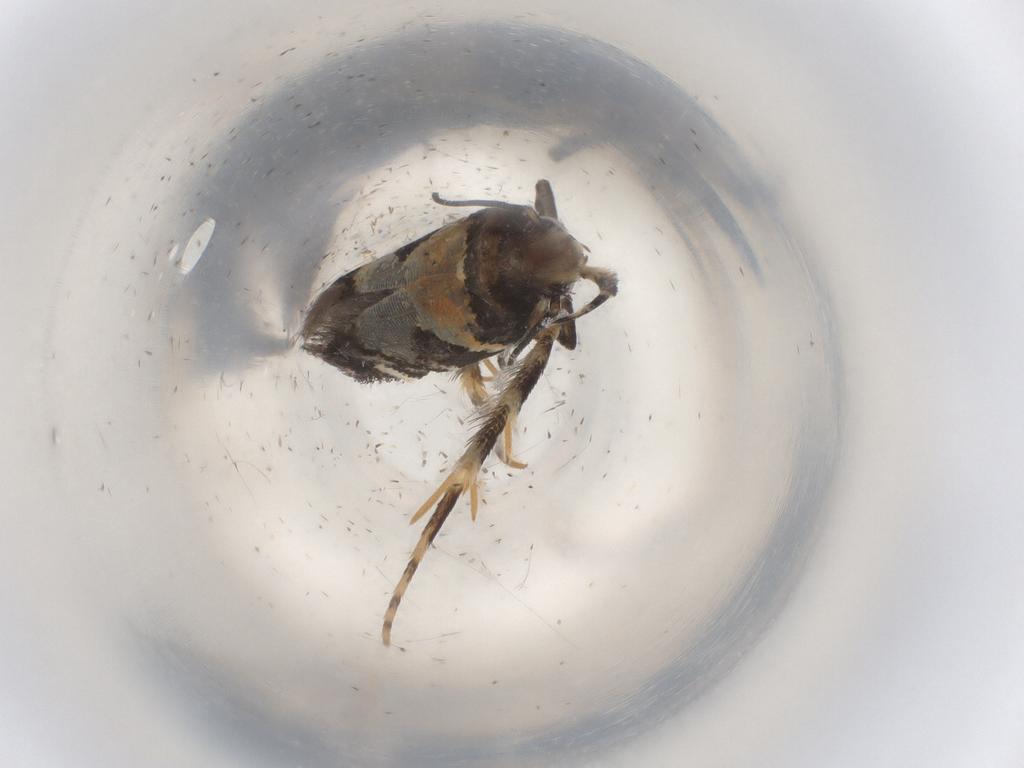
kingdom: Animalia
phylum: Arthropoda
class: Insecta
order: Lepidoptera
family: Gelechiidae
